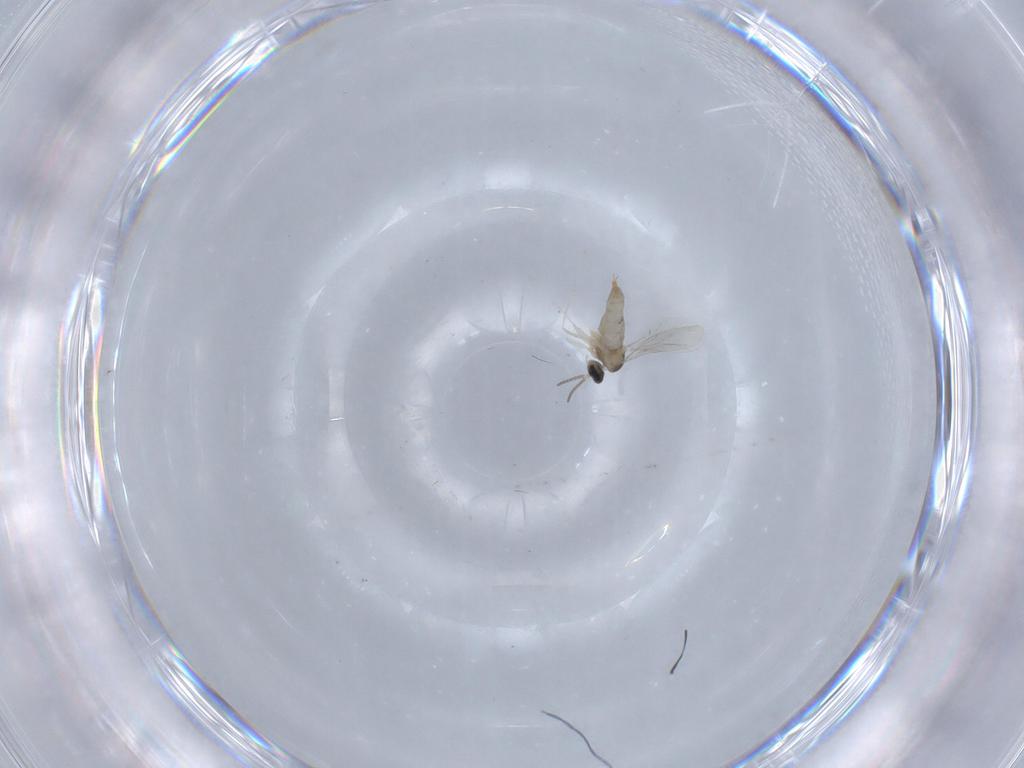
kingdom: Animalia
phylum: Arthropoda
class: Insecta
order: Diptera
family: Cecidomyiidae
